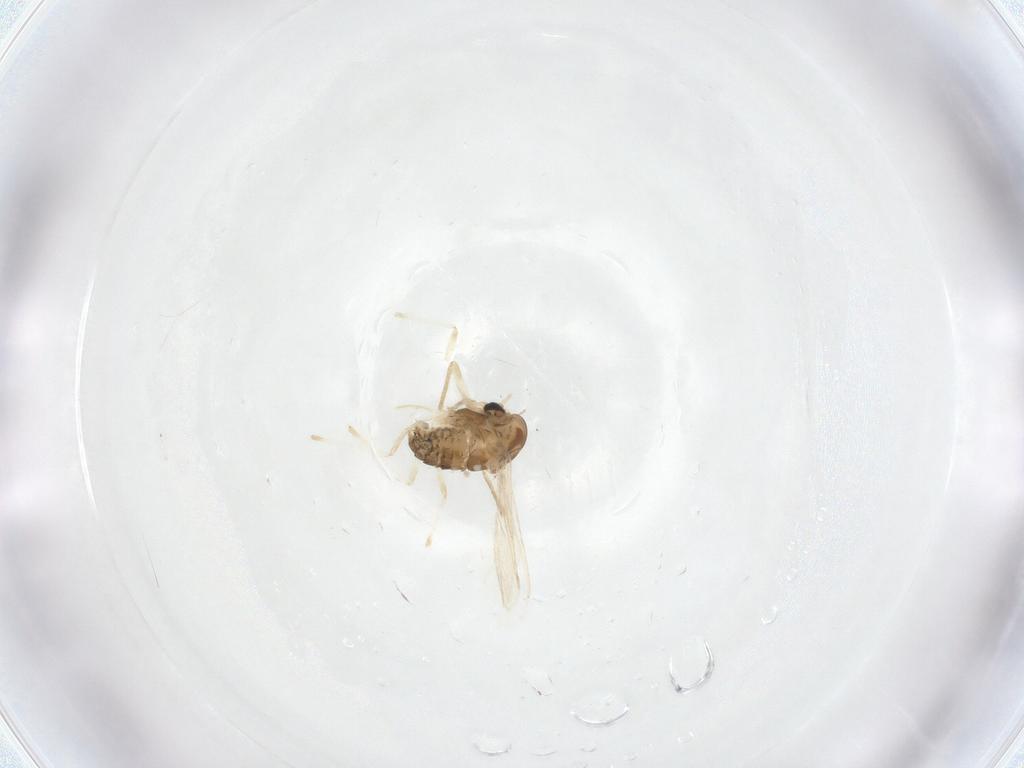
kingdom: Animalia
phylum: Arthropoda
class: Insecta
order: Diptera
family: Chironomidae
